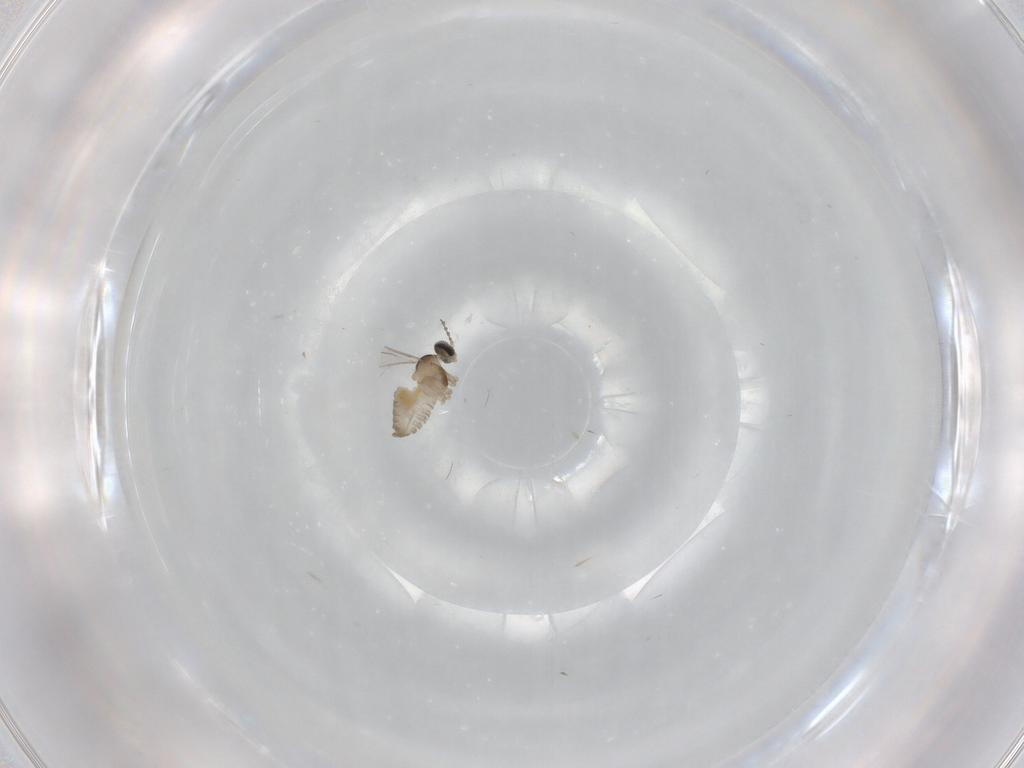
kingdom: Animalia
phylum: Arthropoda
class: Insecta
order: Diptera
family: Cecidomyiidae
